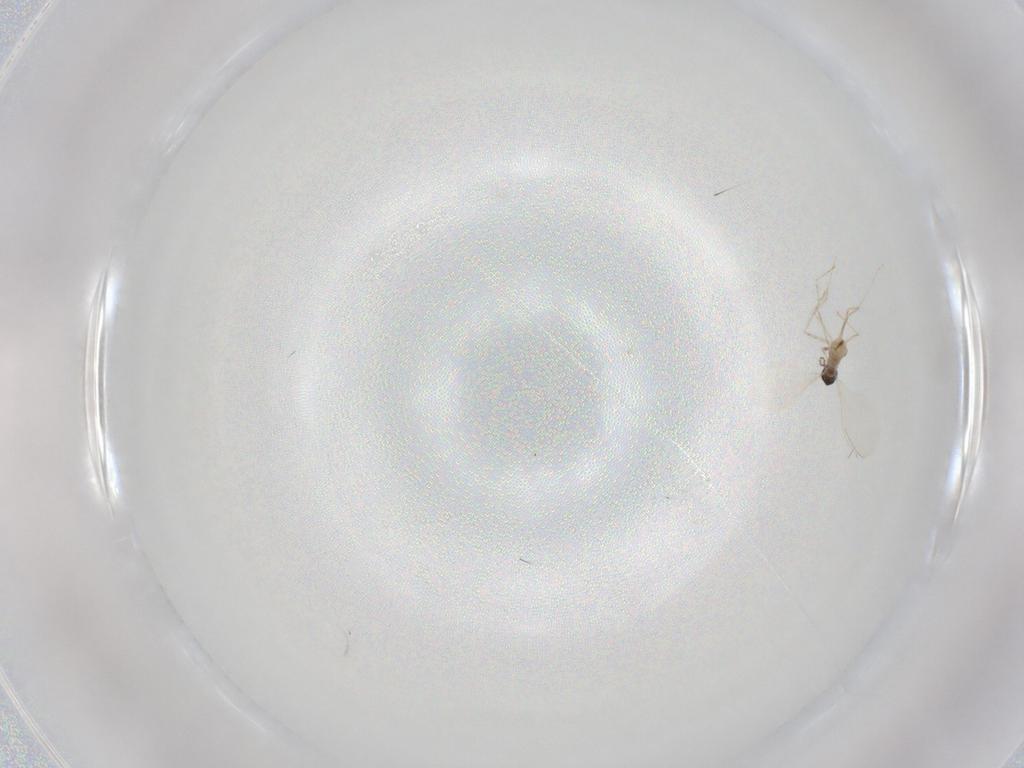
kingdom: Animalia
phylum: Arthropoda
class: Insecta
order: Diptera
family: Cecidomyiidae
